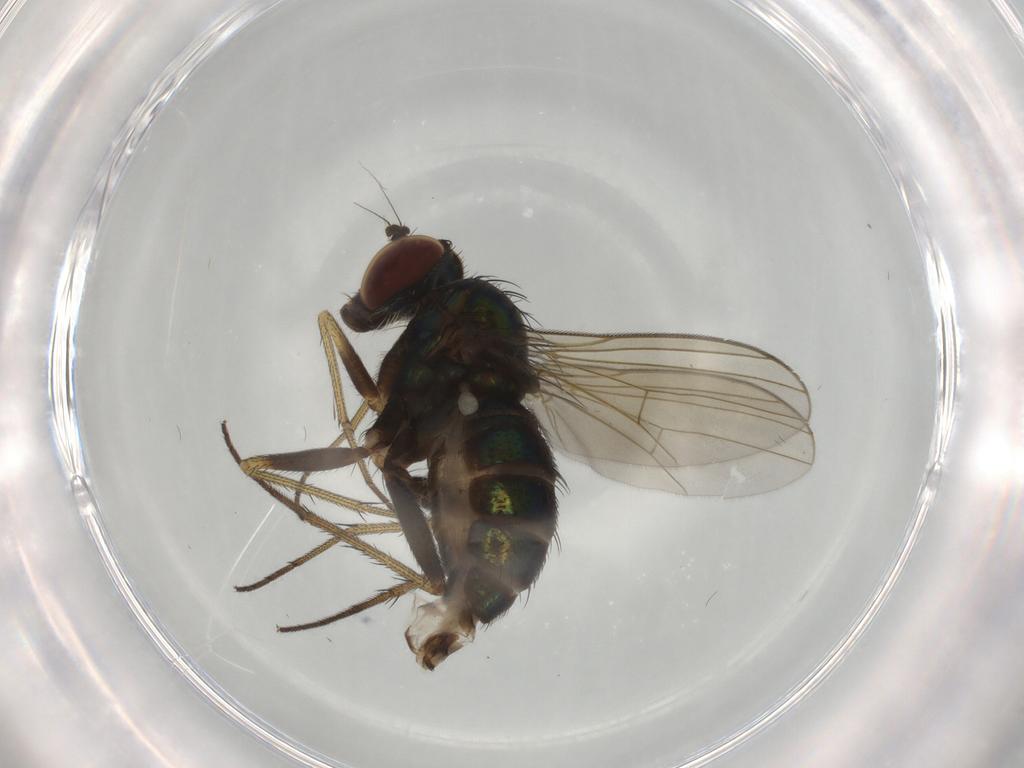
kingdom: Animalia
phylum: Arthropoda
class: Insecta
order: Diptera
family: Dolichopodidae
